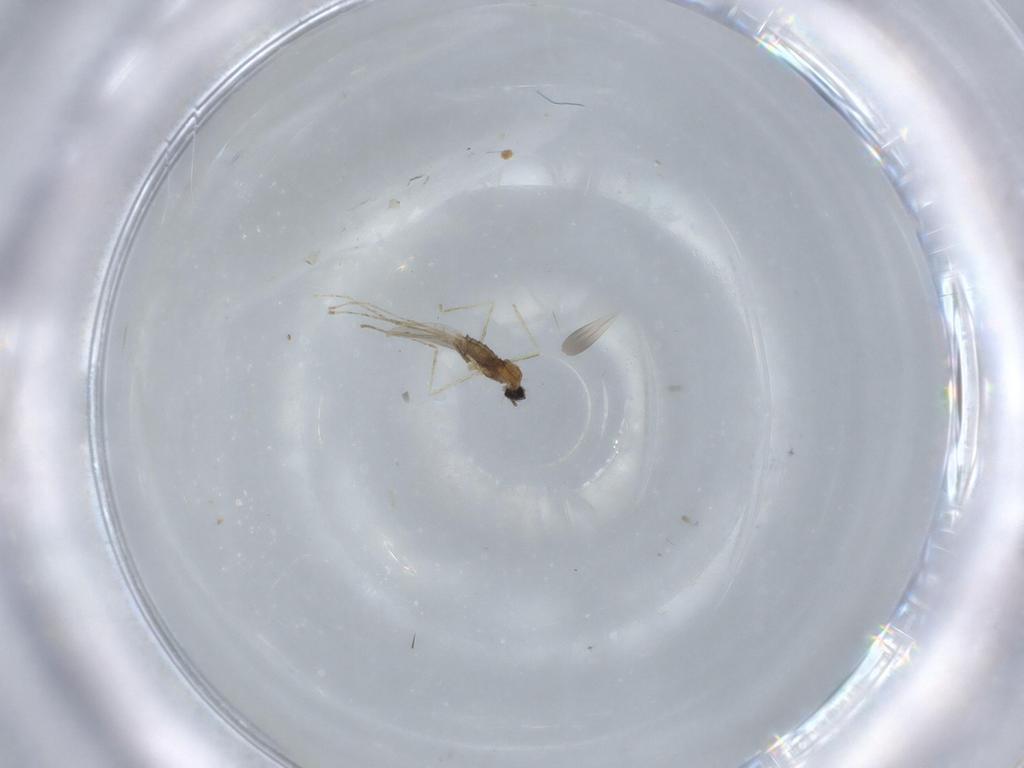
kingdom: Animalia
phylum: Arthropoda
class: Insecta
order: Diptera
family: Cecidomyiidae
